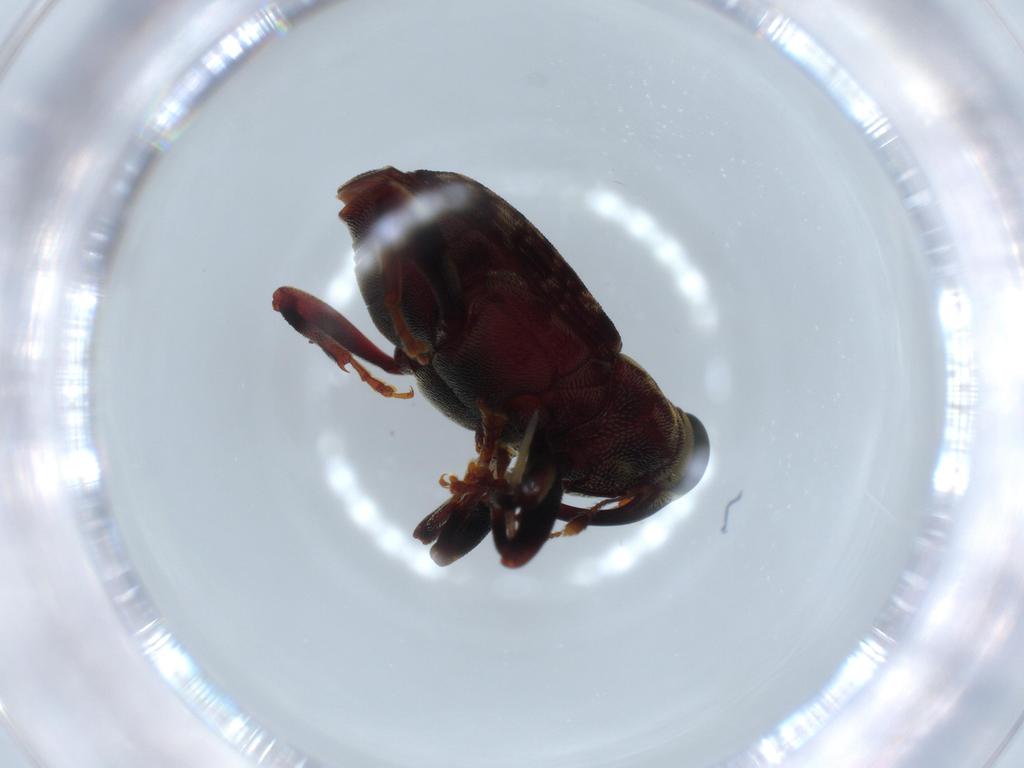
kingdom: Animalia
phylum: Arthropoda
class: Insecta
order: Coleoptera
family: Curculionidae
